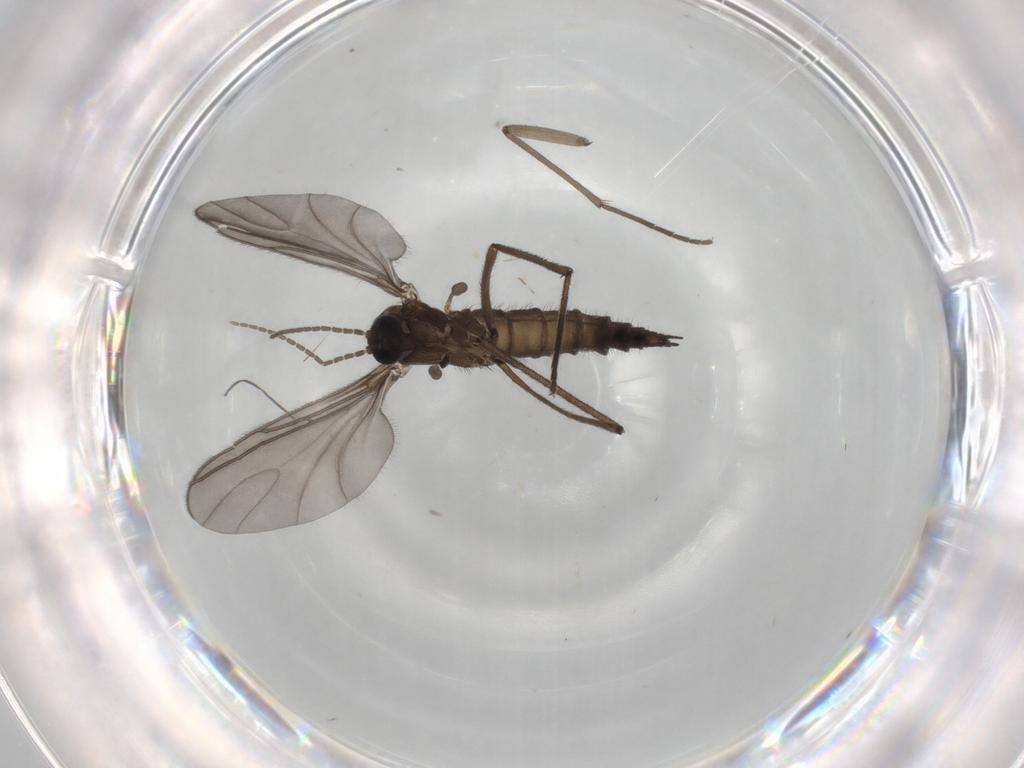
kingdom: Animalia
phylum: Arthropoda
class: Insecta
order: Diptera
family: Sciaridae
